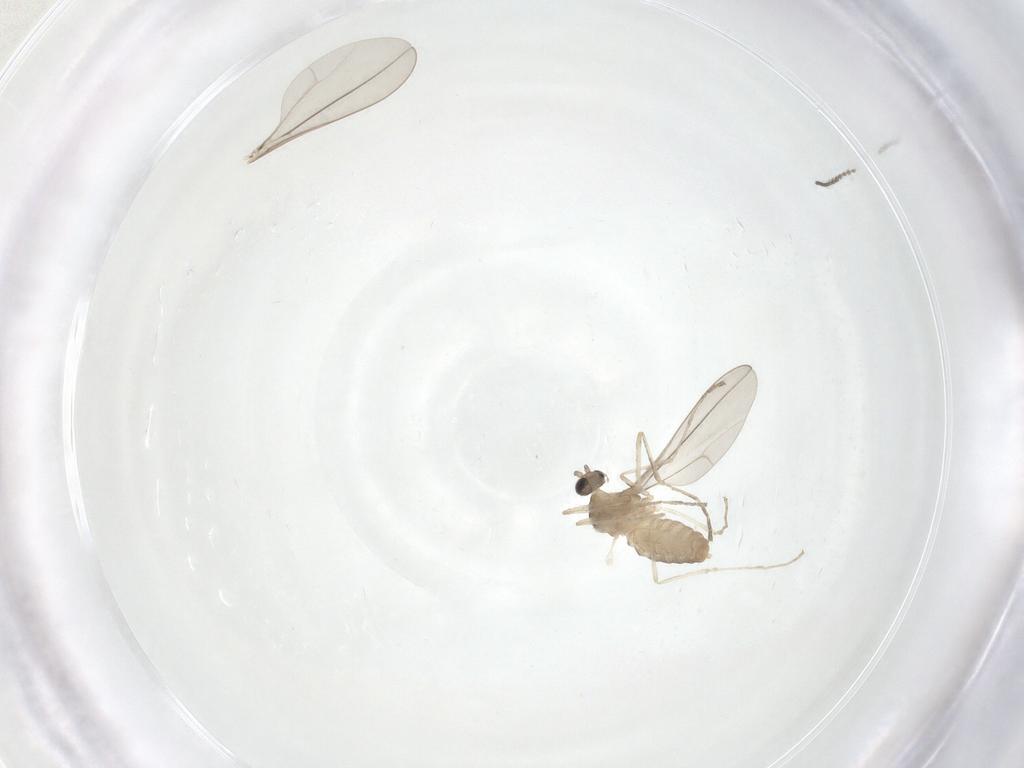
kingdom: Animalia
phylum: Arthropoda
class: Insecta
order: Diptera
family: Cecidomyiidae
